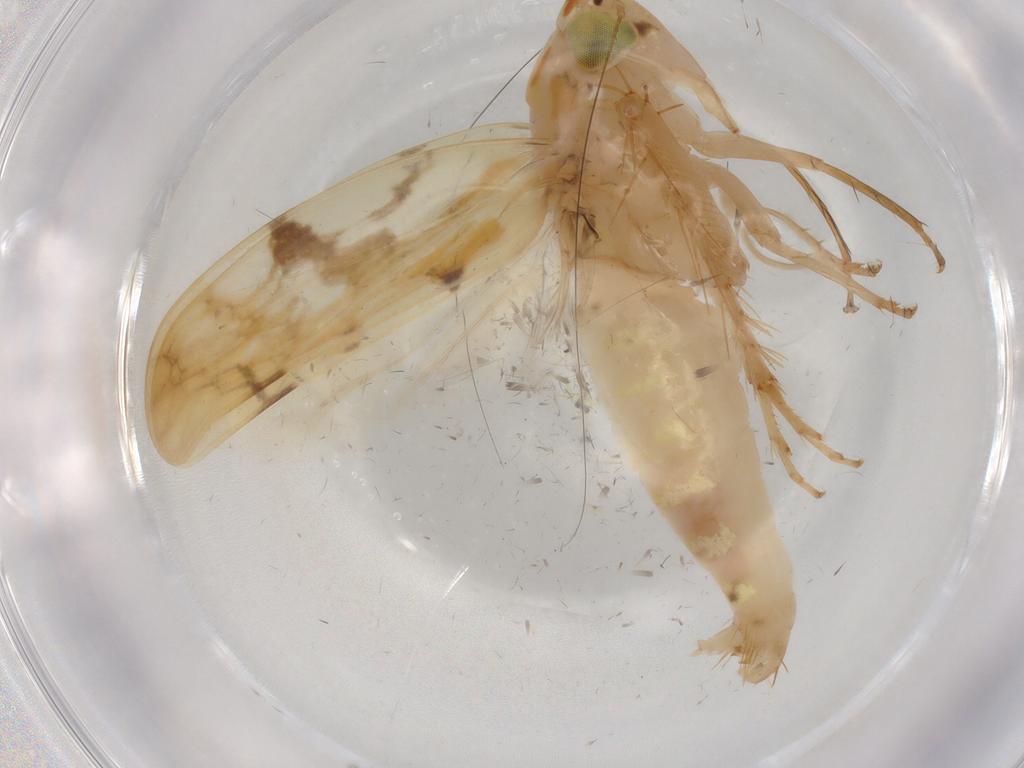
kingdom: Animalia
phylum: Arthropoda
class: Insecta
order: Hemiptera
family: Cicadellidae
